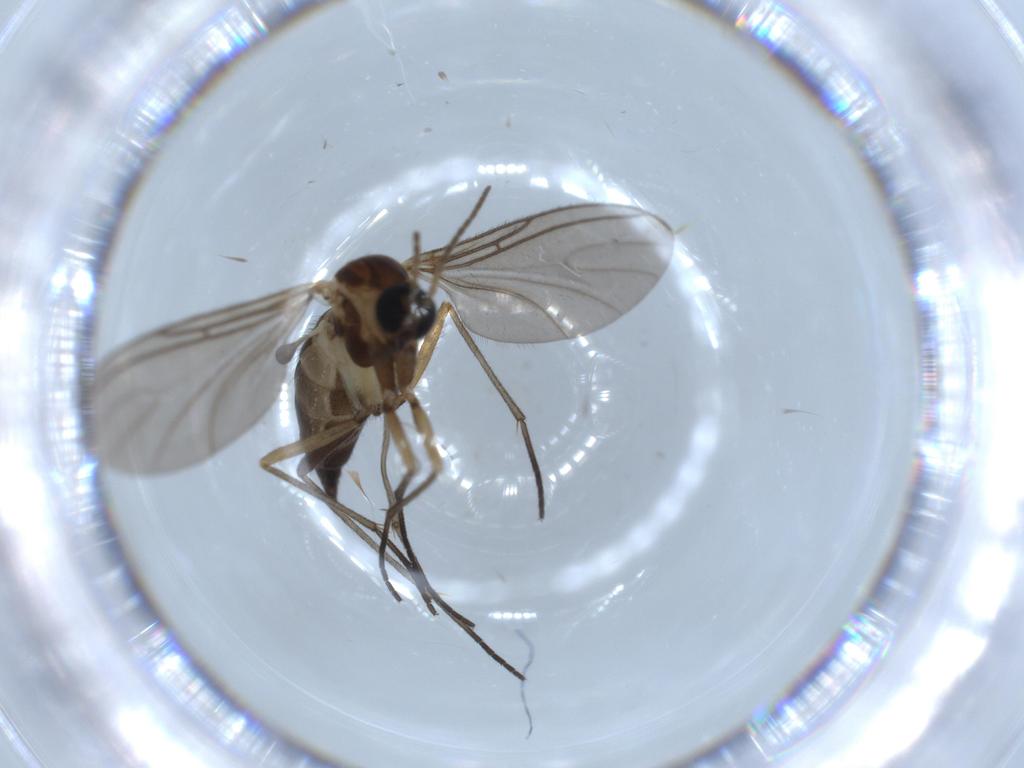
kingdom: Animalia
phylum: Arthropoda
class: Insecta
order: Diptera
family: Sciaridae
